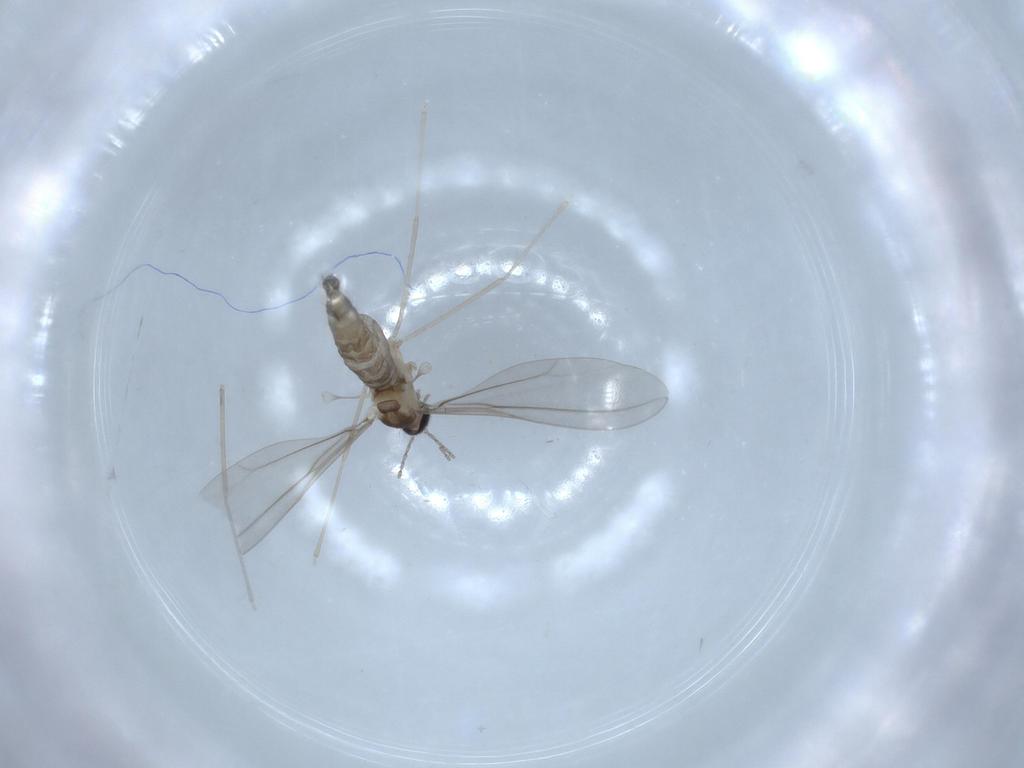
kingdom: Animalia
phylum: Arthropoda
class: Insecta
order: Diptera
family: Cecidomyiidae
